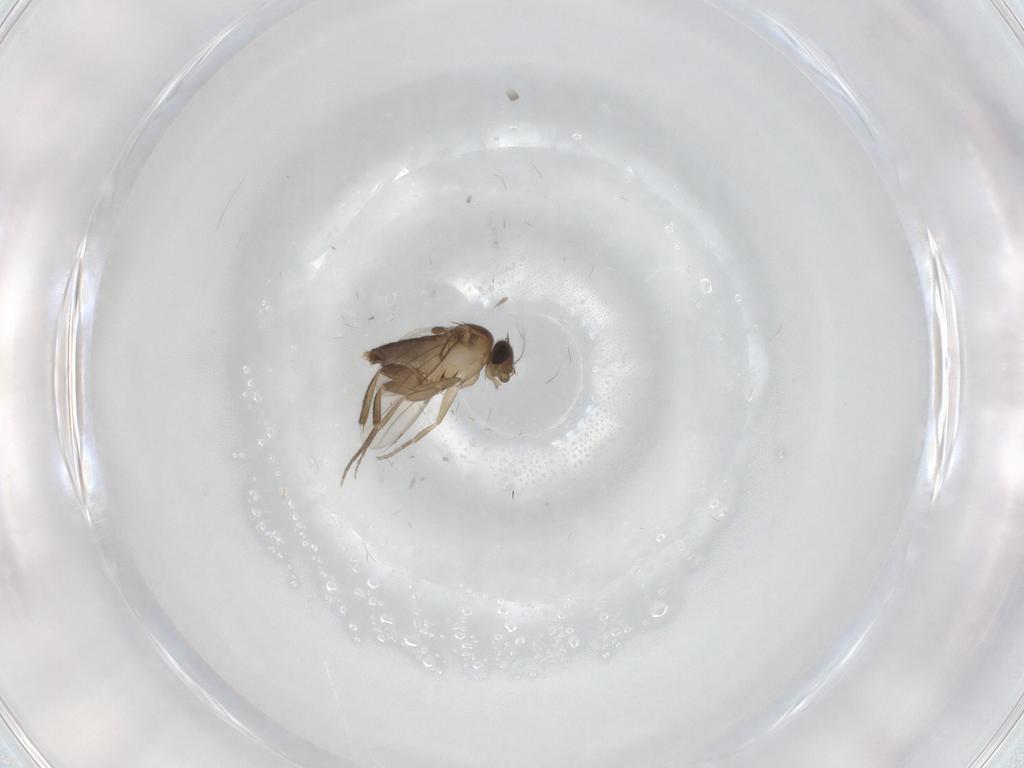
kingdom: Animalia
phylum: Arthropoda
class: Insecta
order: Diptera
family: Phoridae
